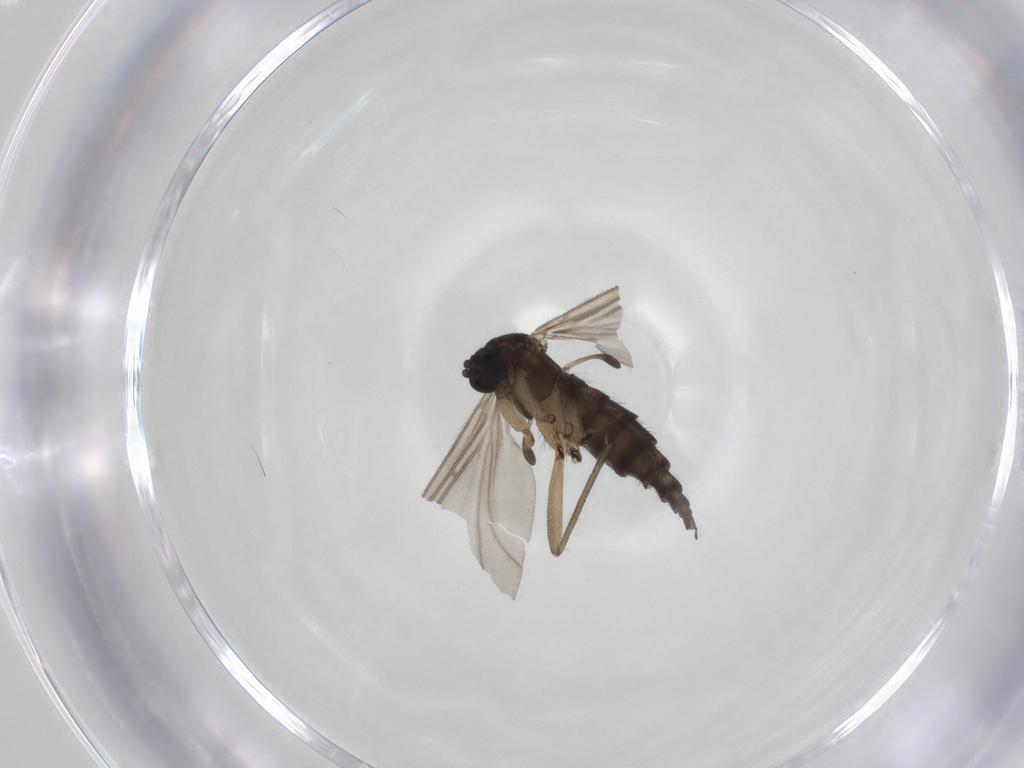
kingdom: Animalia
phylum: Arthropoda
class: Insecta
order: Diptera
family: Sciaridae
